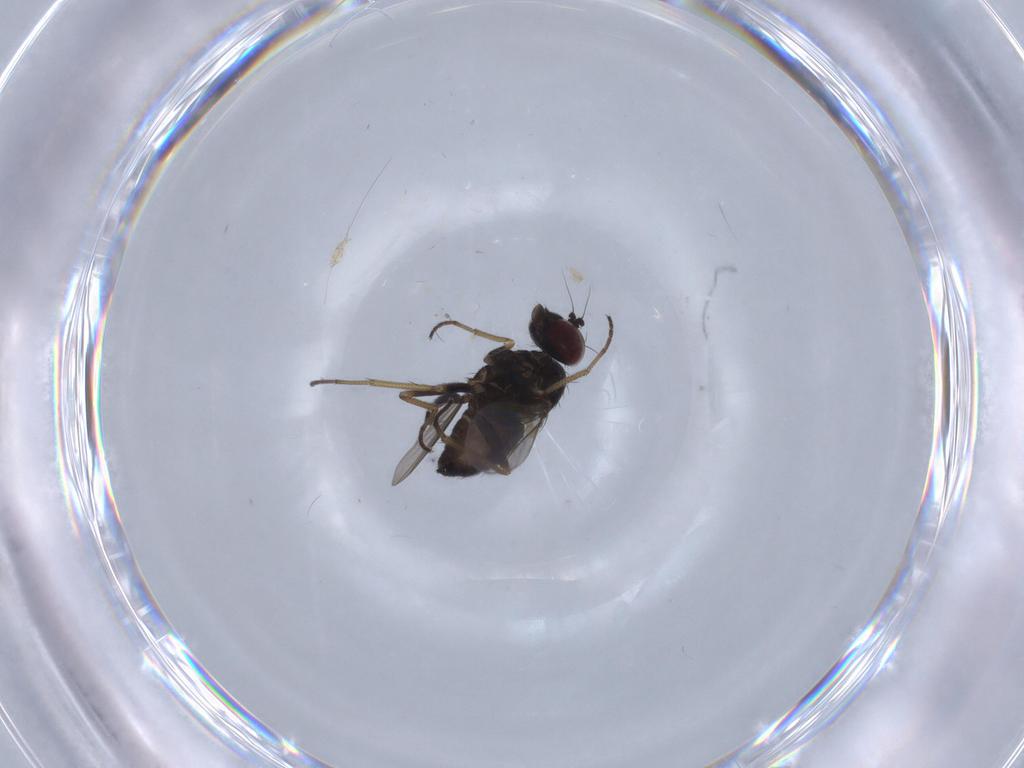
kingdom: Animalia
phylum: Arthropoda
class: Insecta
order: Diptera
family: Dolichopodidae
